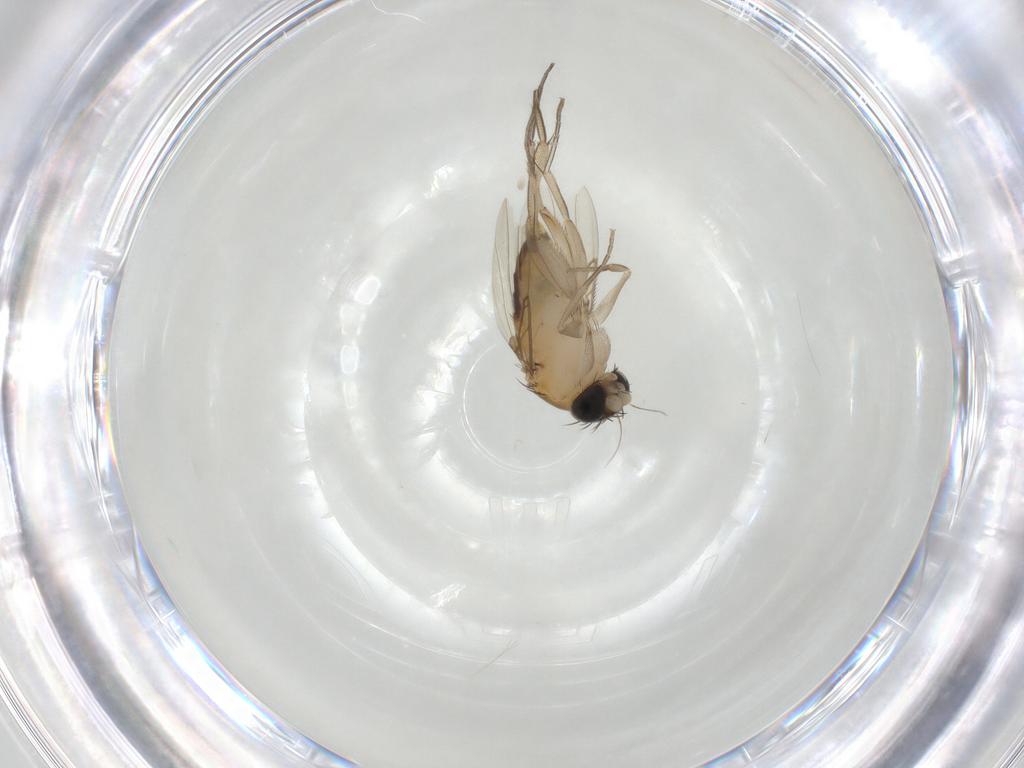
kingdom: Animalia
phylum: Arthropoda
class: Insecta
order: Diptera
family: Phoridae
